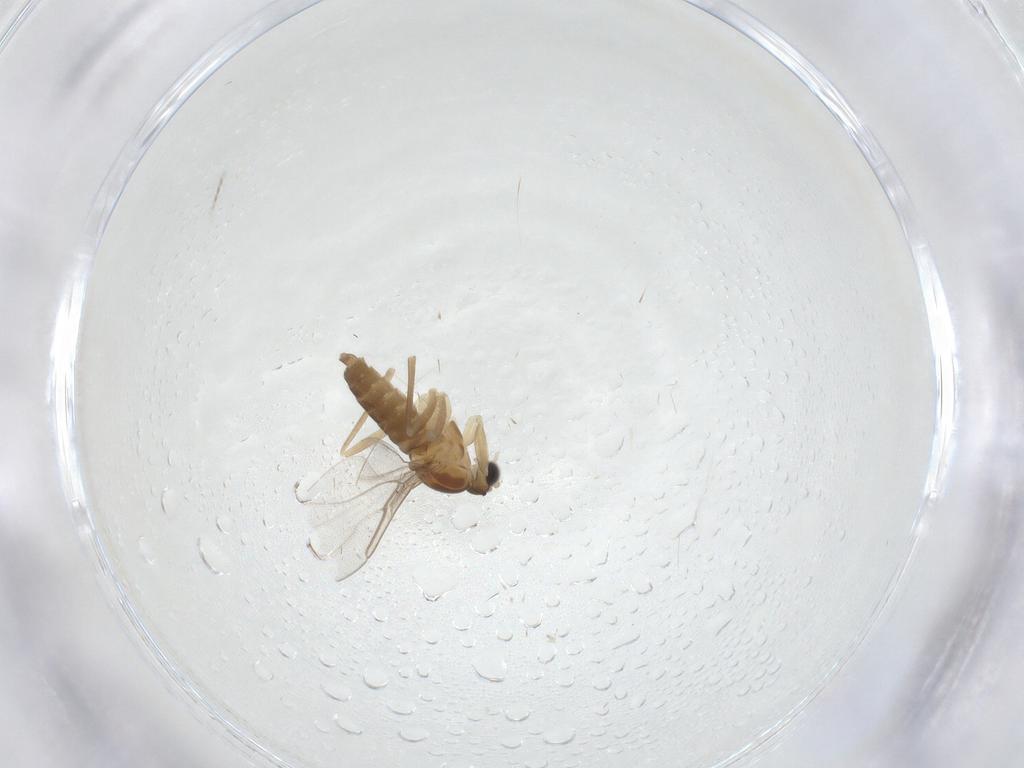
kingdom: Animalia
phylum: Arthropoda
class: Insecta
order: Diptera
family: Cecidomyiidae
